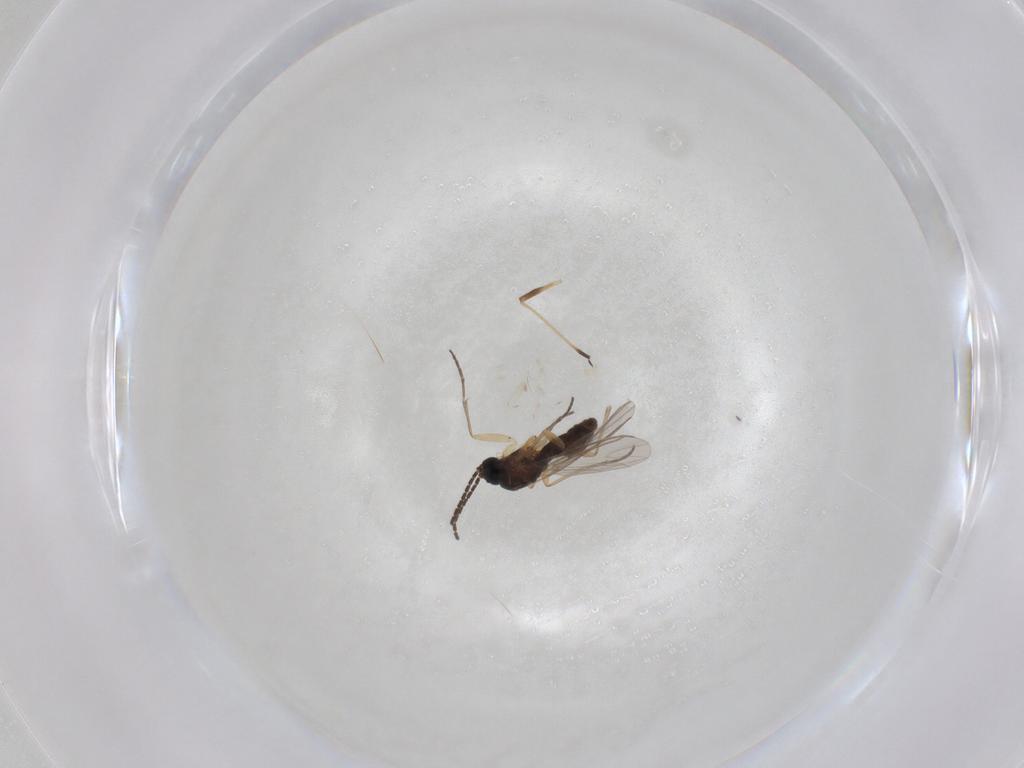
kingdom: Animalia
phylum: Arthropoda
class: Insecta
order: Diptera
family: Sciaridae
